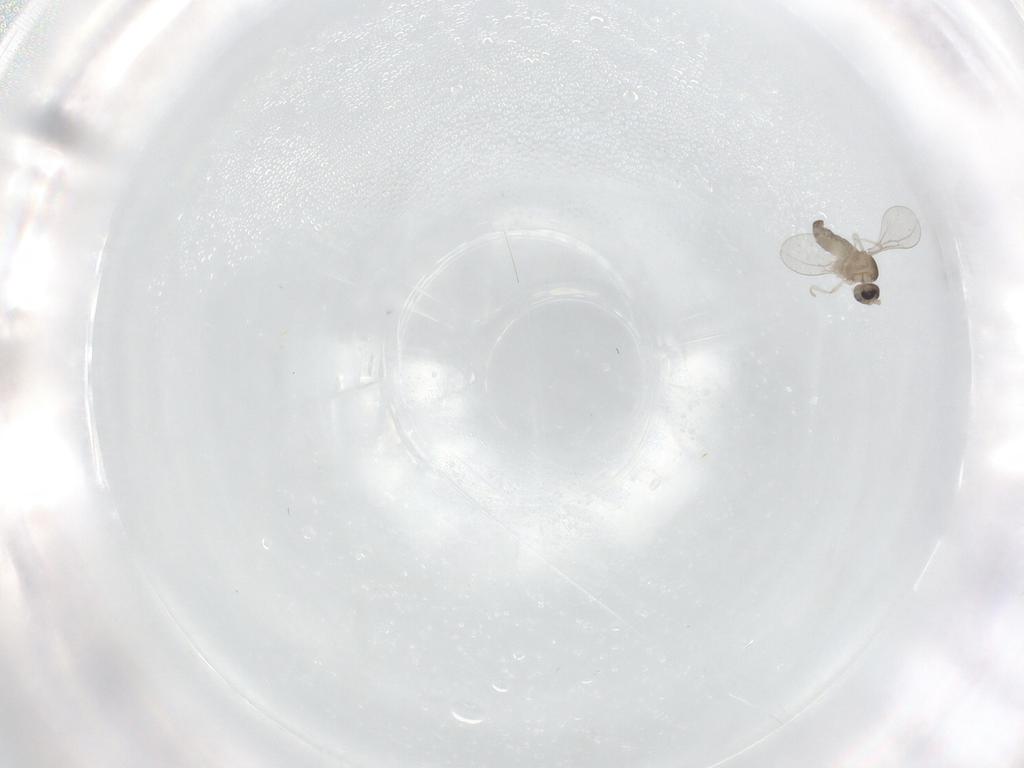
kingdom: Animalia
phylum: Arthropoda
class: Insecta
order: Diptera
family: Cecidomyiidae
